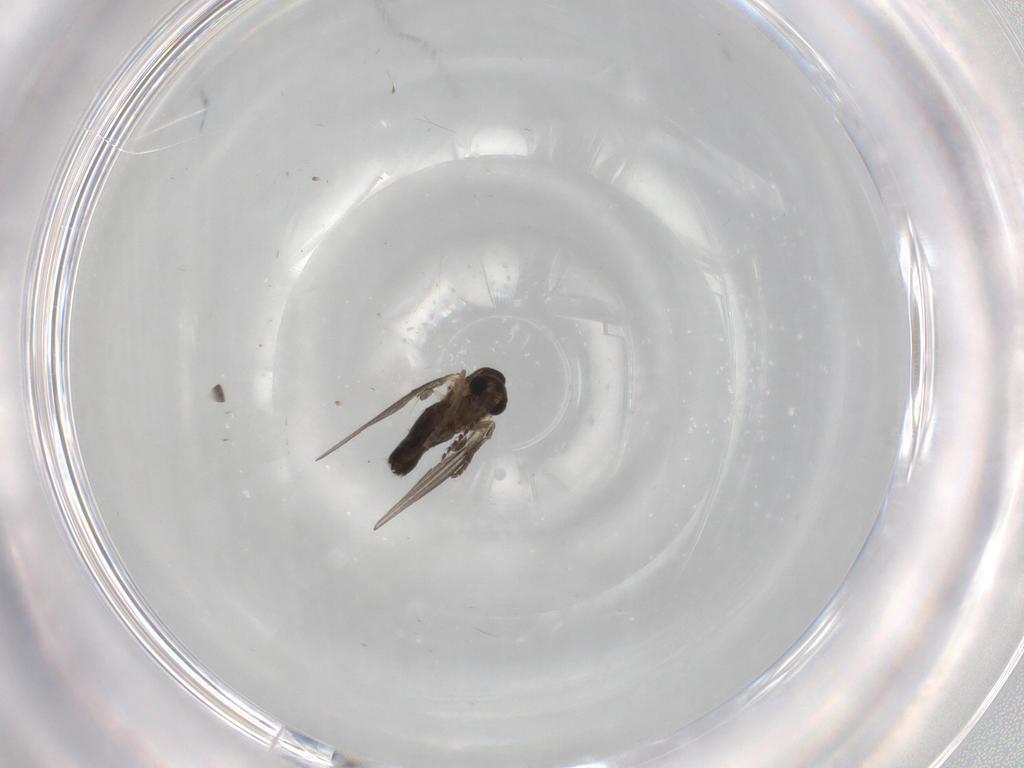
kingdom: Animalia
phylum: Arthropoda
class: Insecta
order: Diptera
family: Limoniidae
